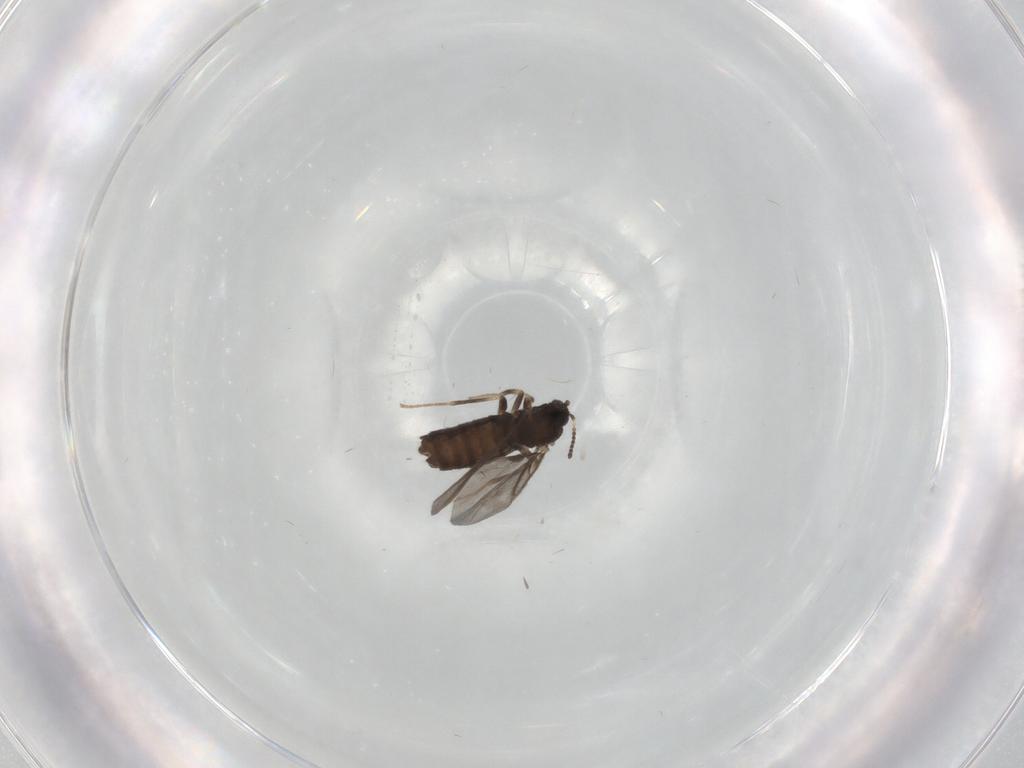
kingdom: Animalia
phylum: Arthropoda
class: Insecta
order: Diptera
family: Scatopsidae
